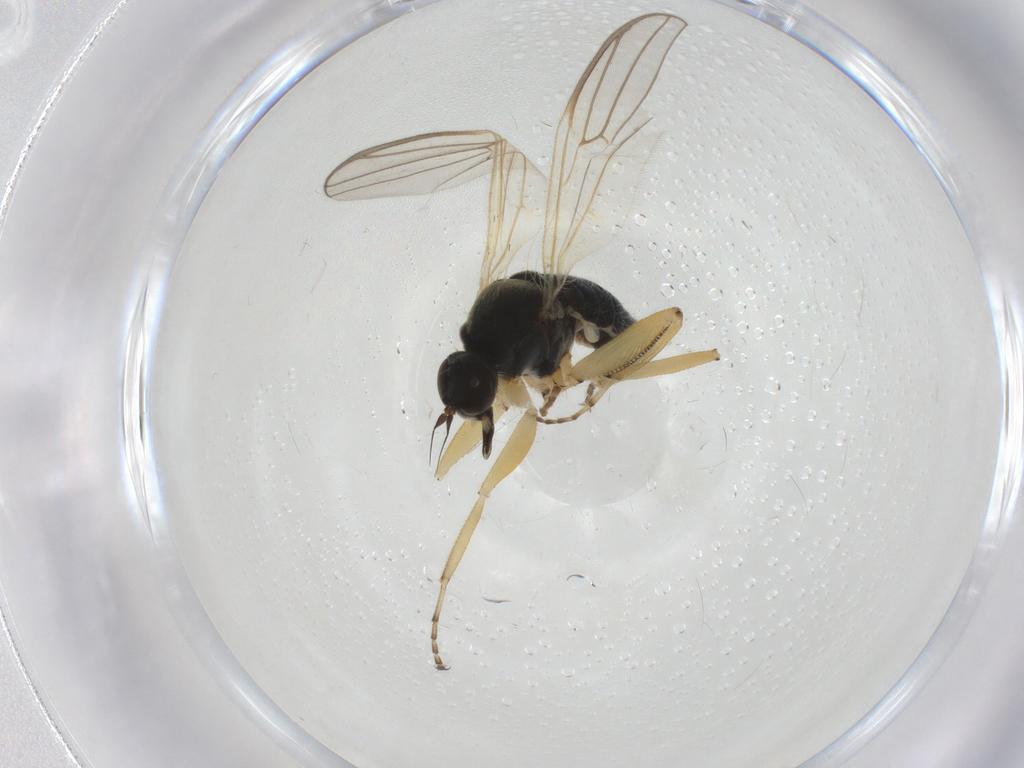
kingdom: Animalia
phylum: Arthropoda
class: Insecta
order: Diptera
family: Hybotidae
